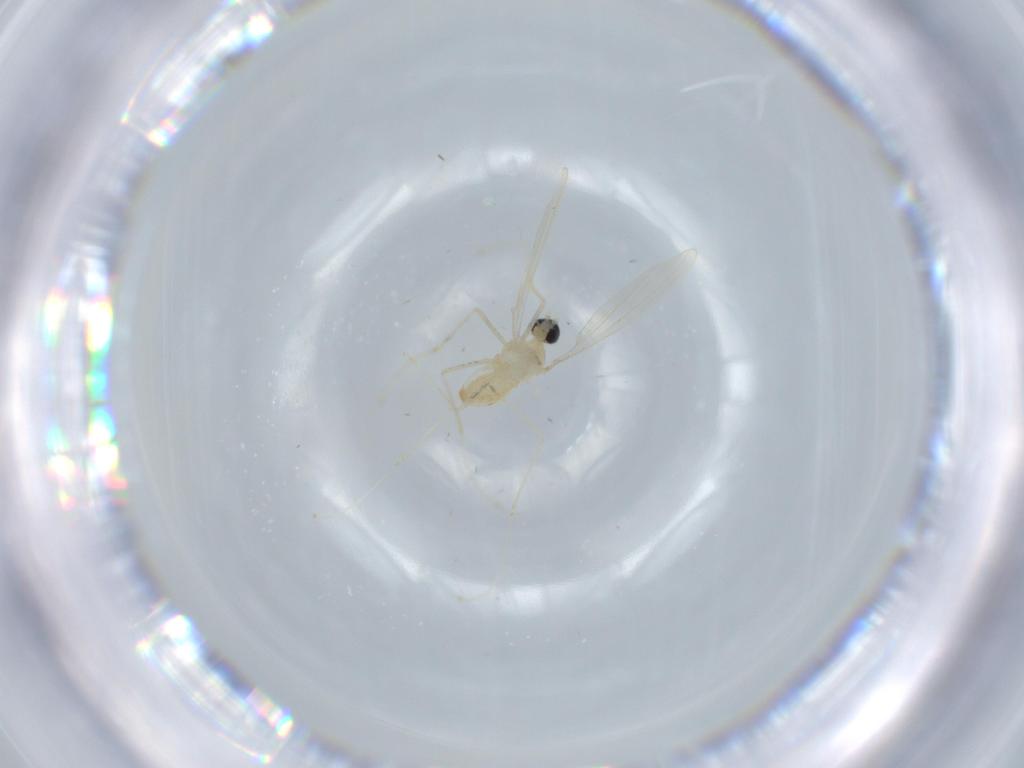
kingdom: Animalia
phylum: Arthropoda
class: Insecta
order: Diptera
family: Cecidomyiidae
